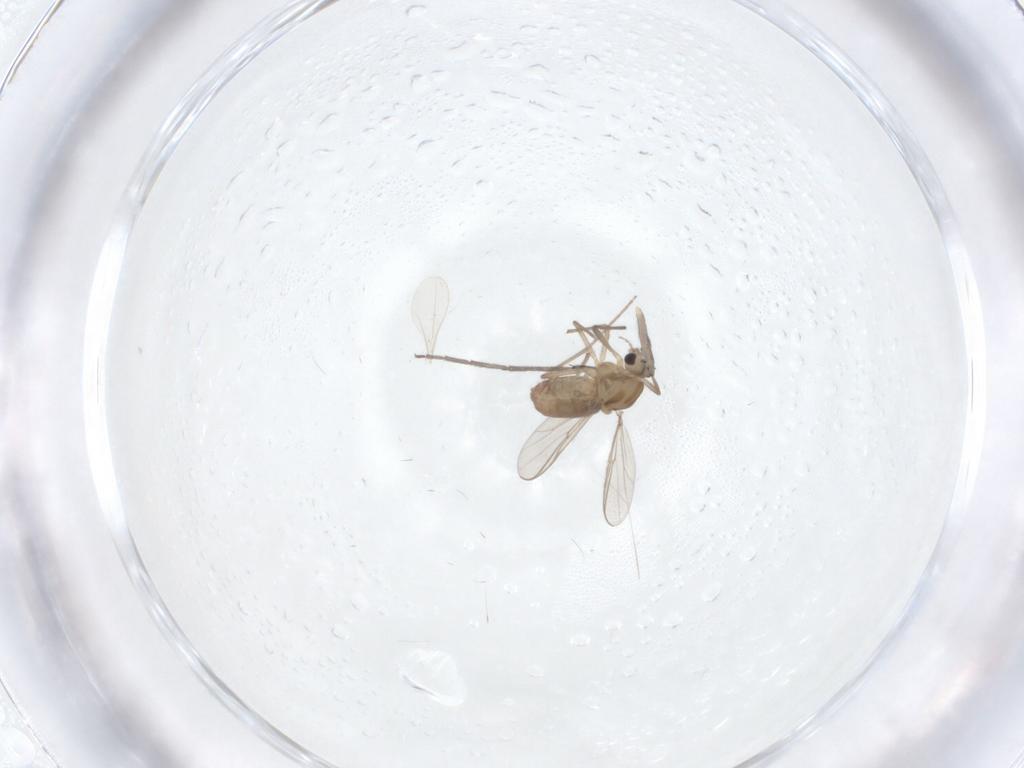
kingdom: Animalia
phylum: Arthropoda
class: Insecta
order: Diptera
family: Chironomidae
